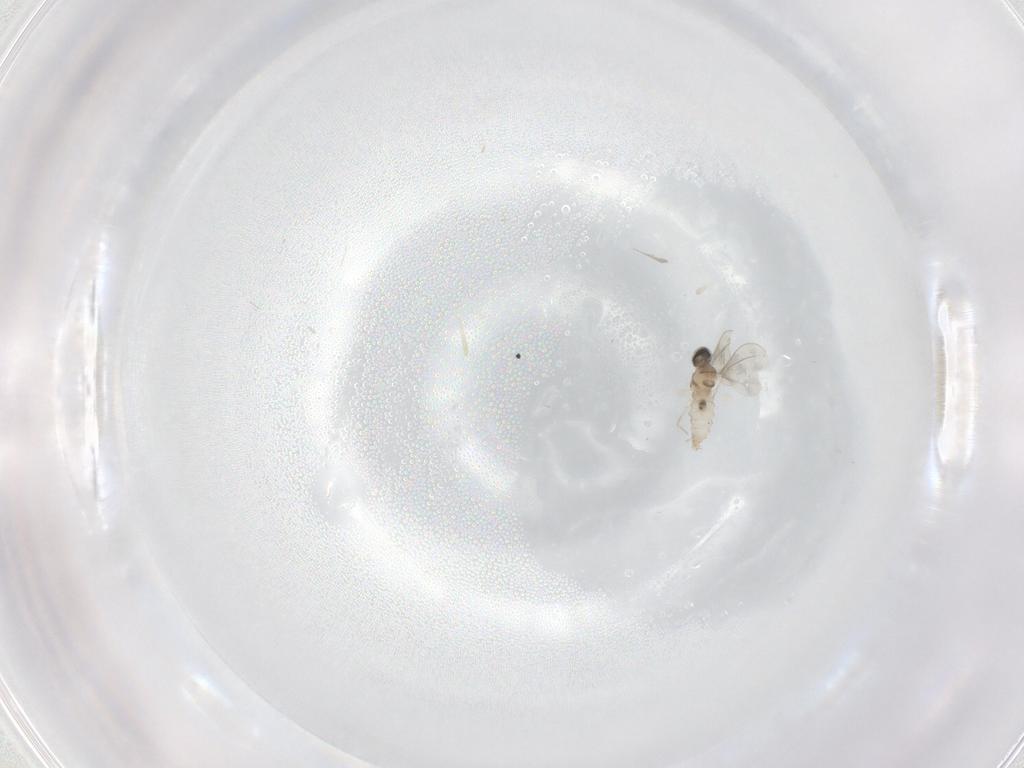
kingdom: Animalia
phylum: Arthropoda
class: Insecta
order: Diptera
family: Cecidomyiidae
